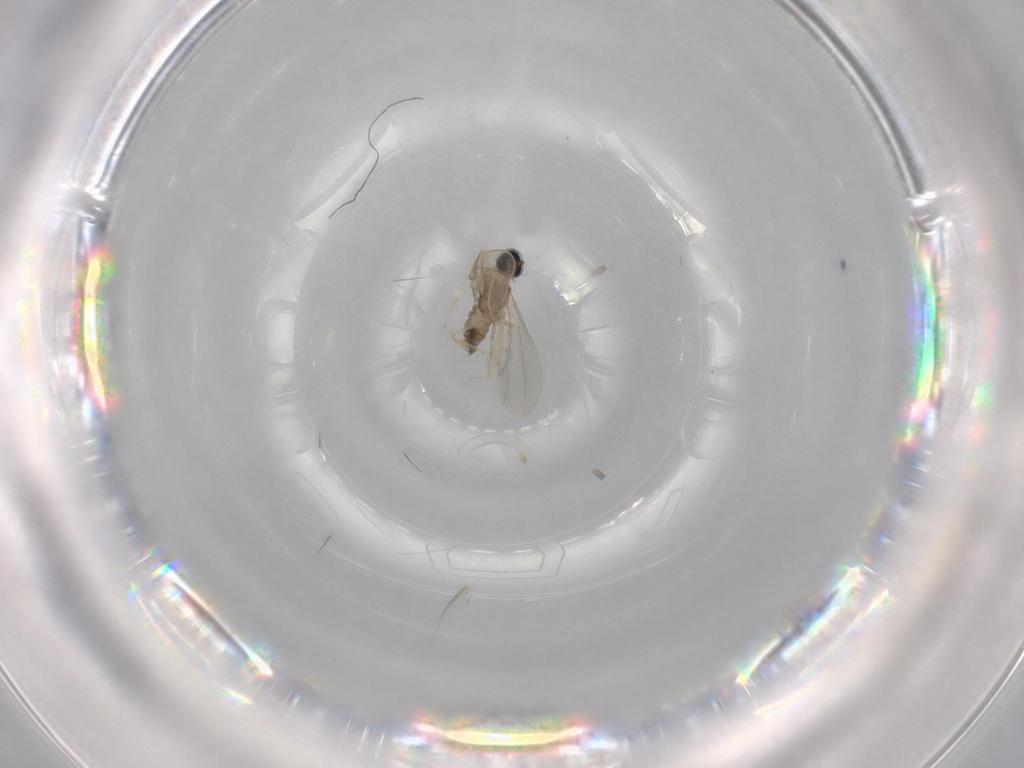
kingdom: Animalia
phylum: Arthropoda
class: Insecta
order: Diptera
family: Cecidomyiidae
